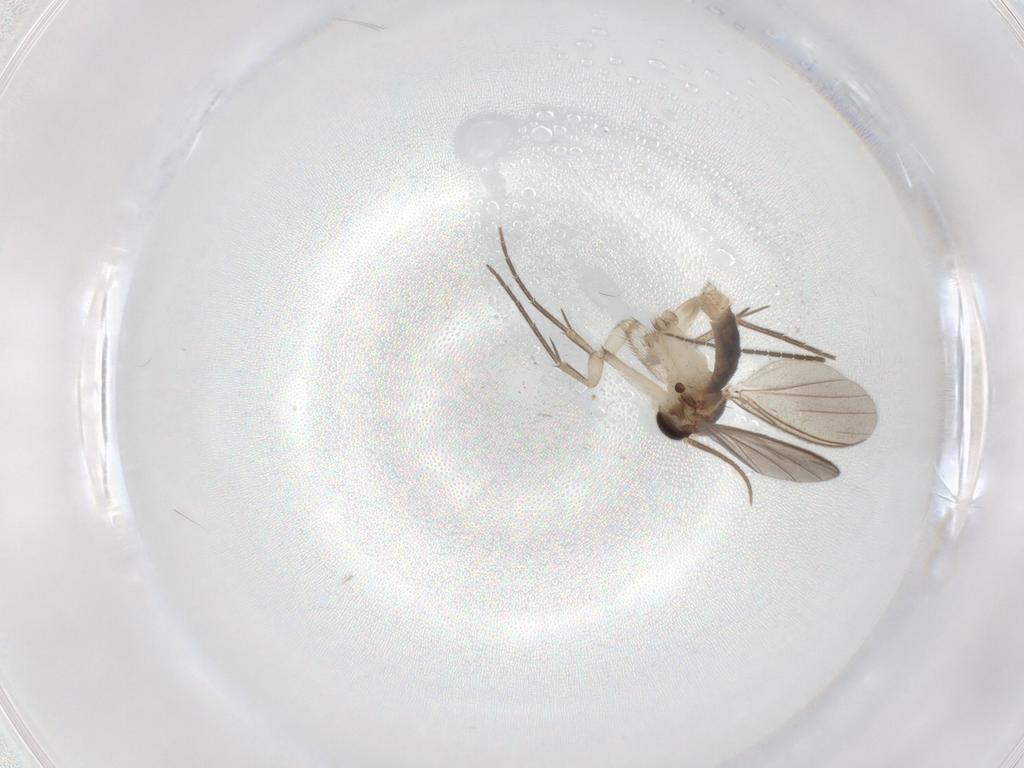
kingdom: Animalia
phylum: Arthropoda
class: Insecta
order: Diptera
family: Mycetophilidae
